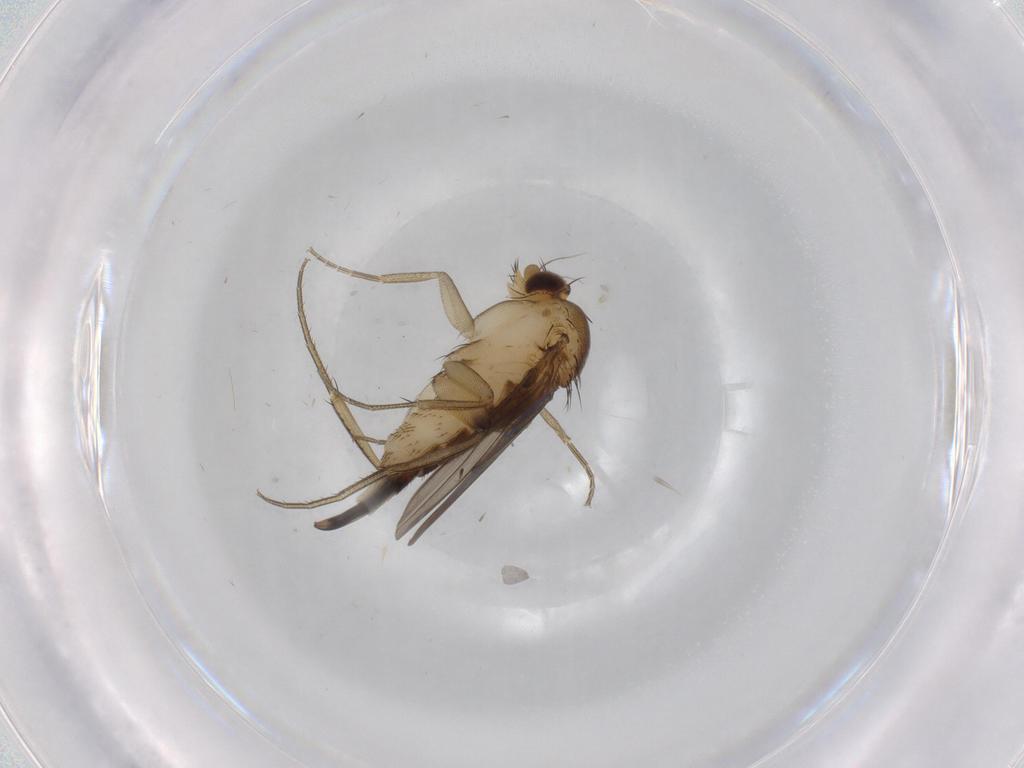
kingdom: Animalia
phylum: Arthropoda
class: Insecta
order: Diptera
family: Phoridae
